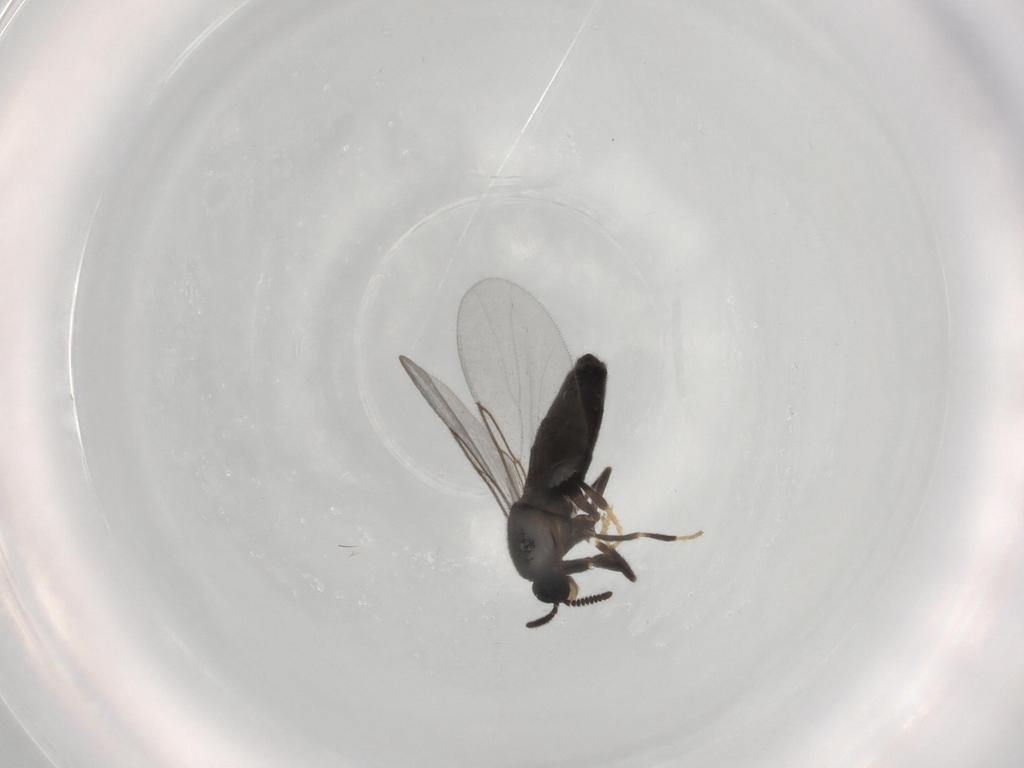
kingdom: Animalia
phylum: Arthropoda
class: Insecta
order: Diptera
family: Scatopsidae
